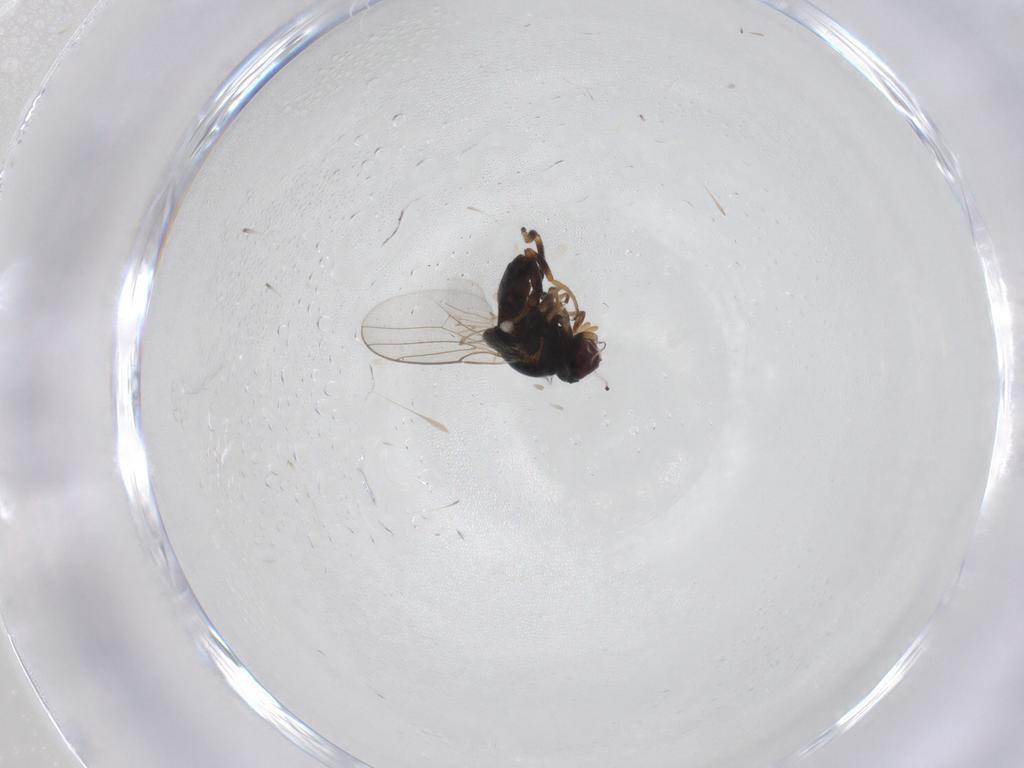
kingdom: Animalia
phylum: Arthropoda
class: Insecta
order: Diptera
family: Chloropidae
